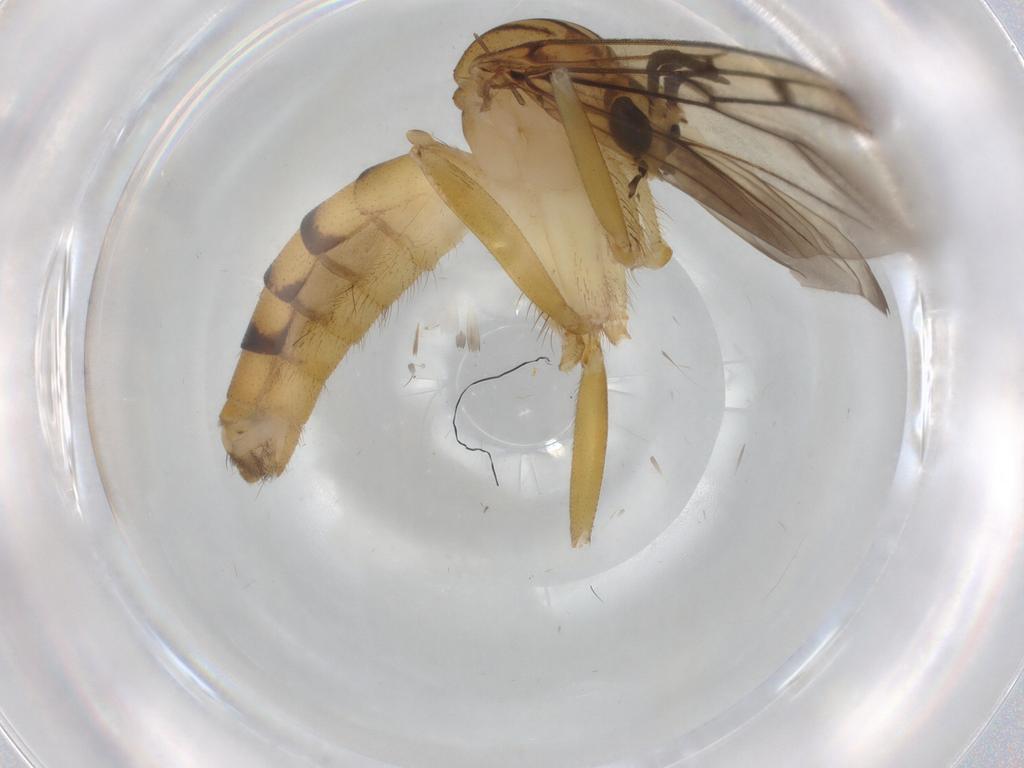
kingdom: Animalia
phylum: Arthropoda
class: Insecta
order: Diptera
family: Mycetophilidae
